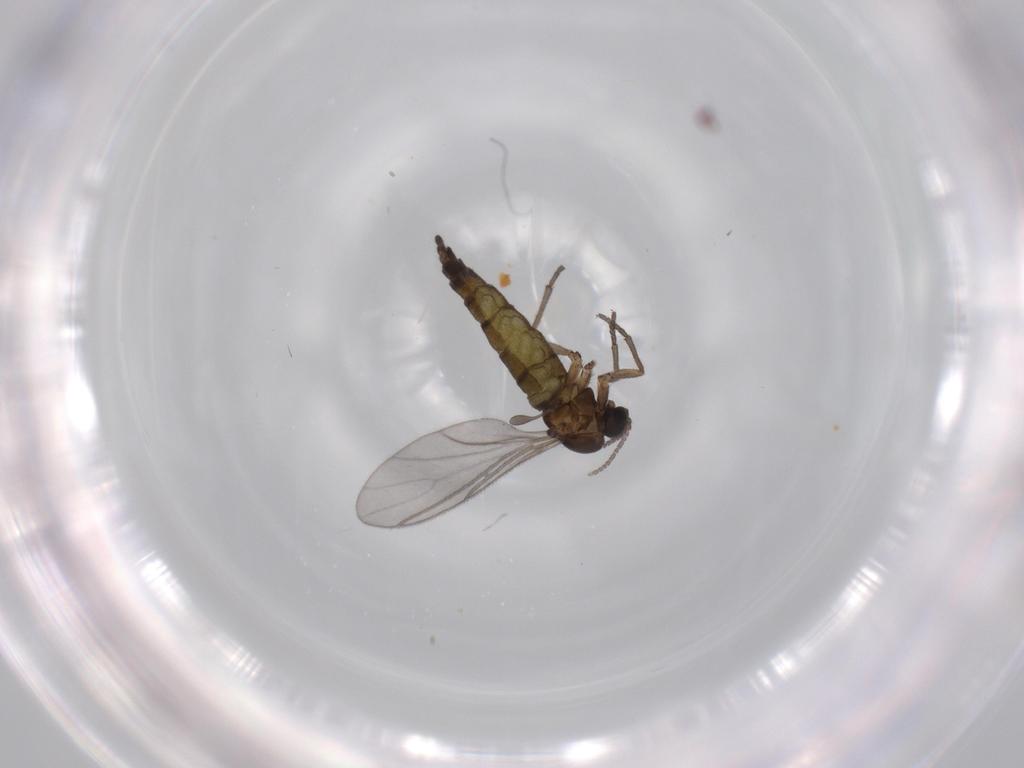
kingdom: Animalia
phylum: Arthropoda
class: Insecta
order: Diptera
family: Sciaridae
